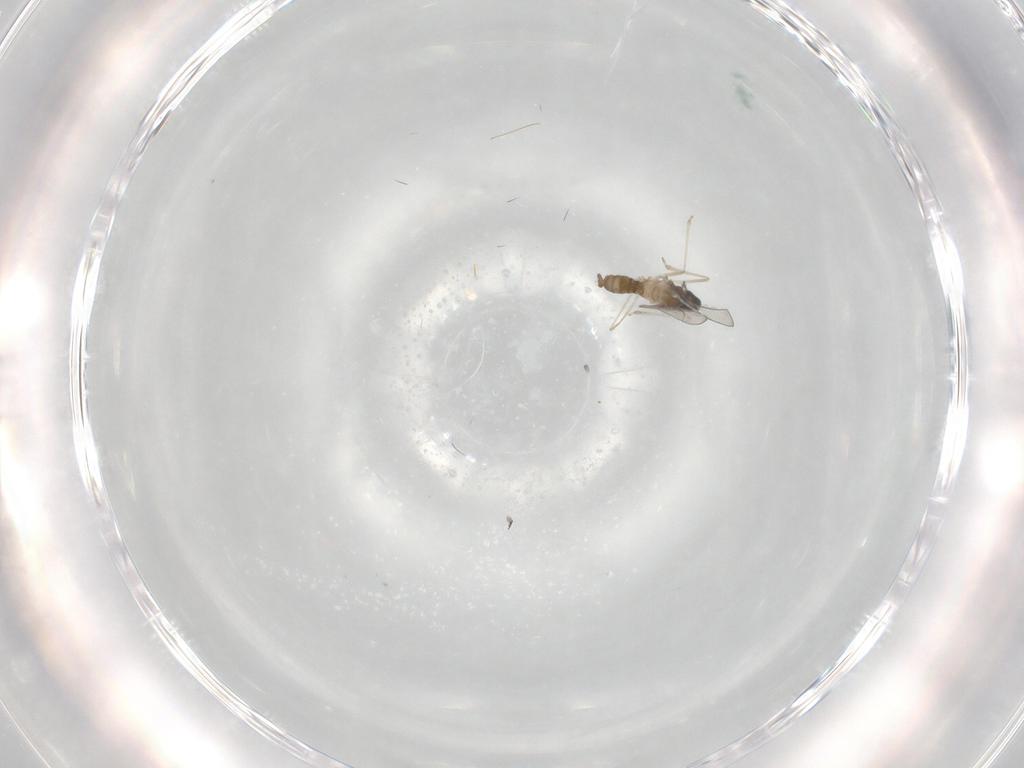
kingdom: Animalia
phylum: Arthropoda
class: Insecta
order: Diptera
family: Cecidomyiidae
